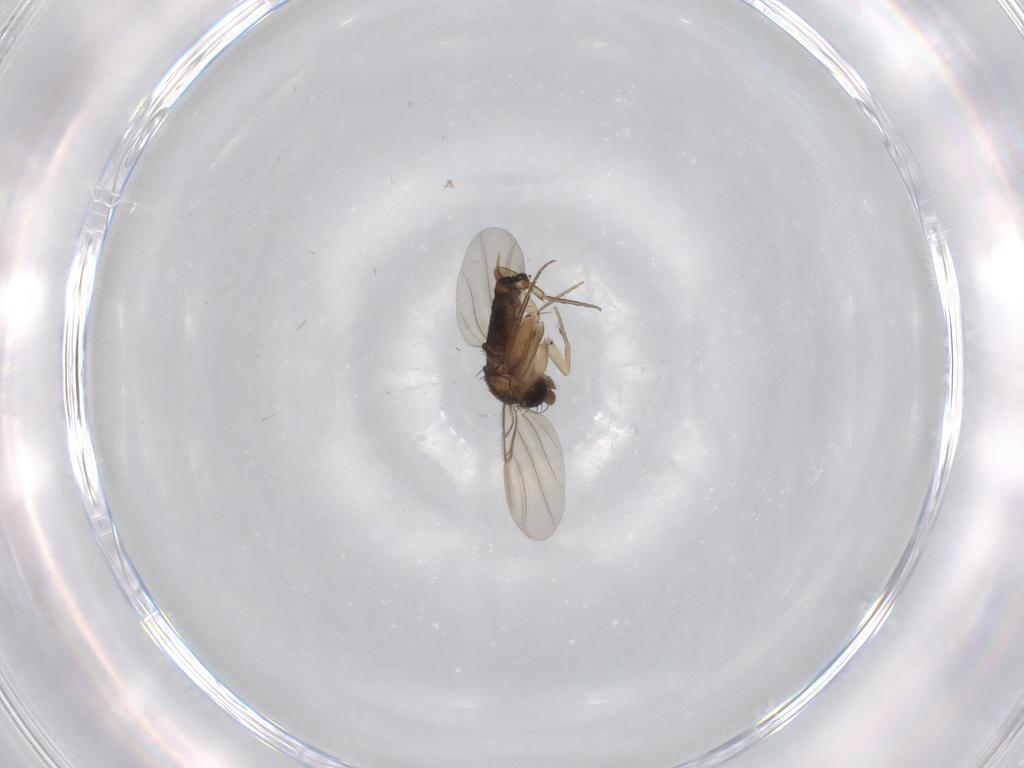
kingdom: Animalia
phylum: Arthropoda
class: Insecta
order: Diptera
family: Phoridae
